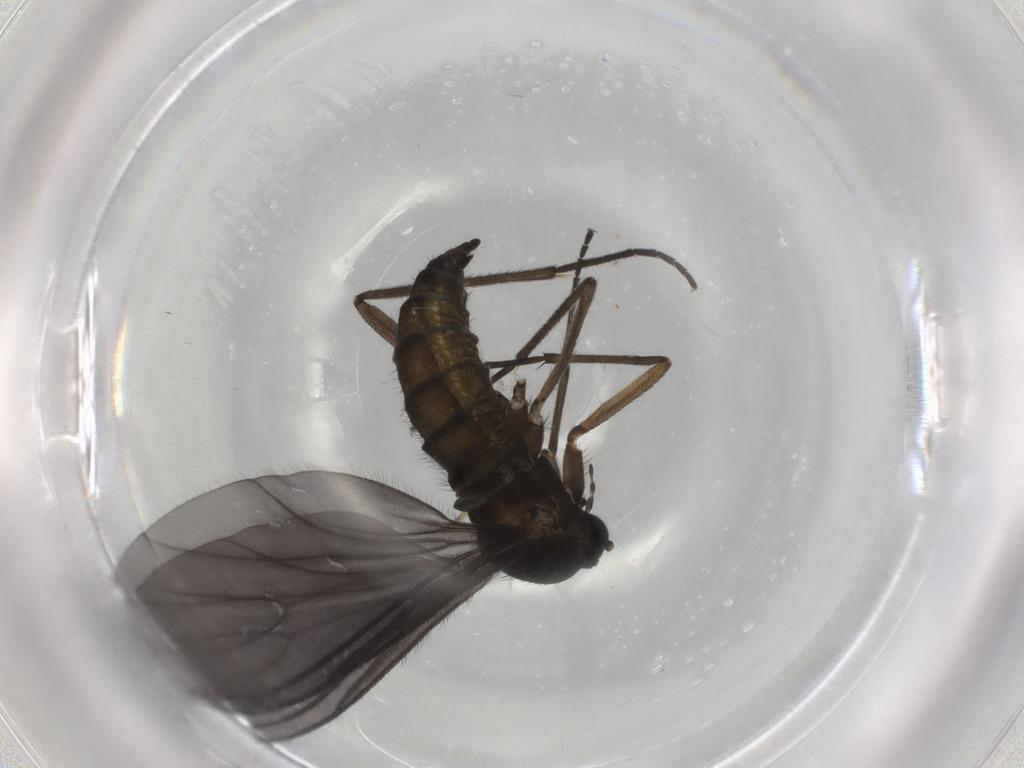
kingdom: Animalia
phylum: Arthropoda
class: Insecta
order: Diptera
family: Sciaridae
